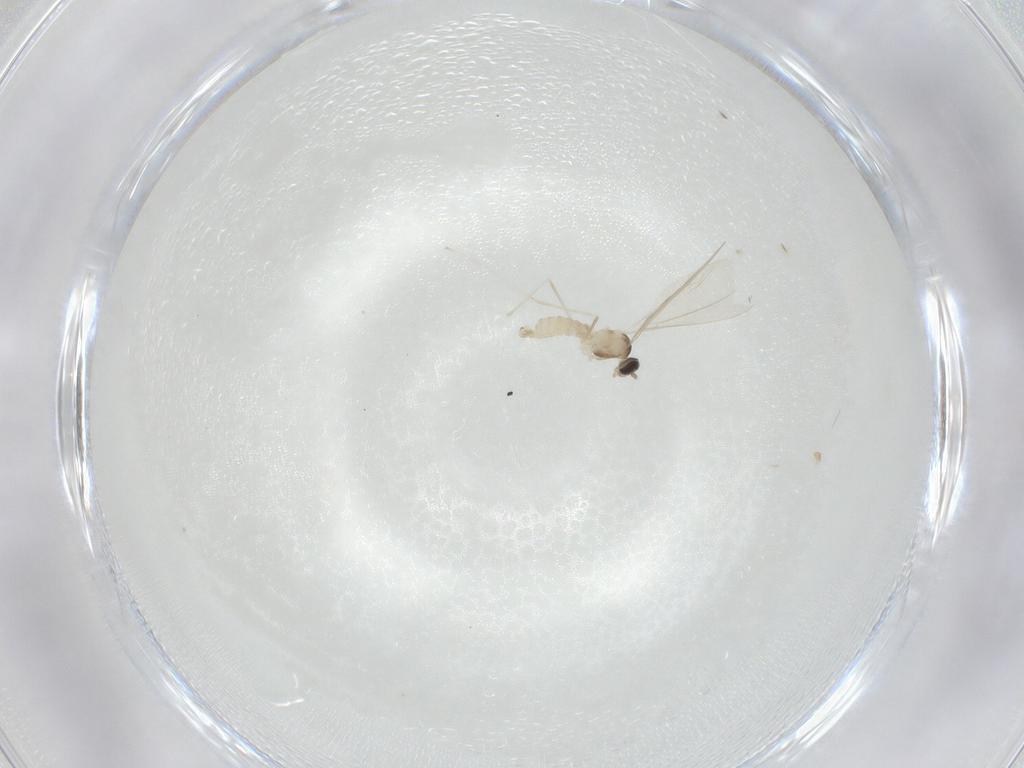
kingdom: Animalia
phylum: Arthropoda
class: Insecta
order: Diptera
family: Cecidomyiidae
